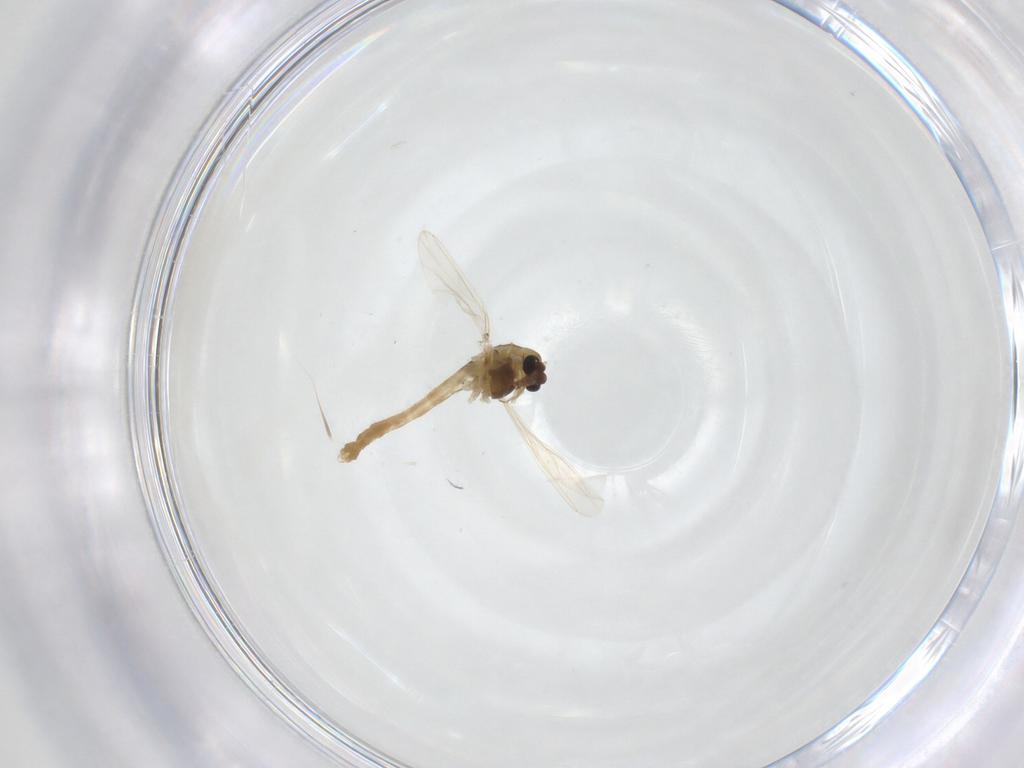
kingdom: Animalia
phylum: Arthropoda
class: Insecta
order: Diptera
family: Chironomidae
